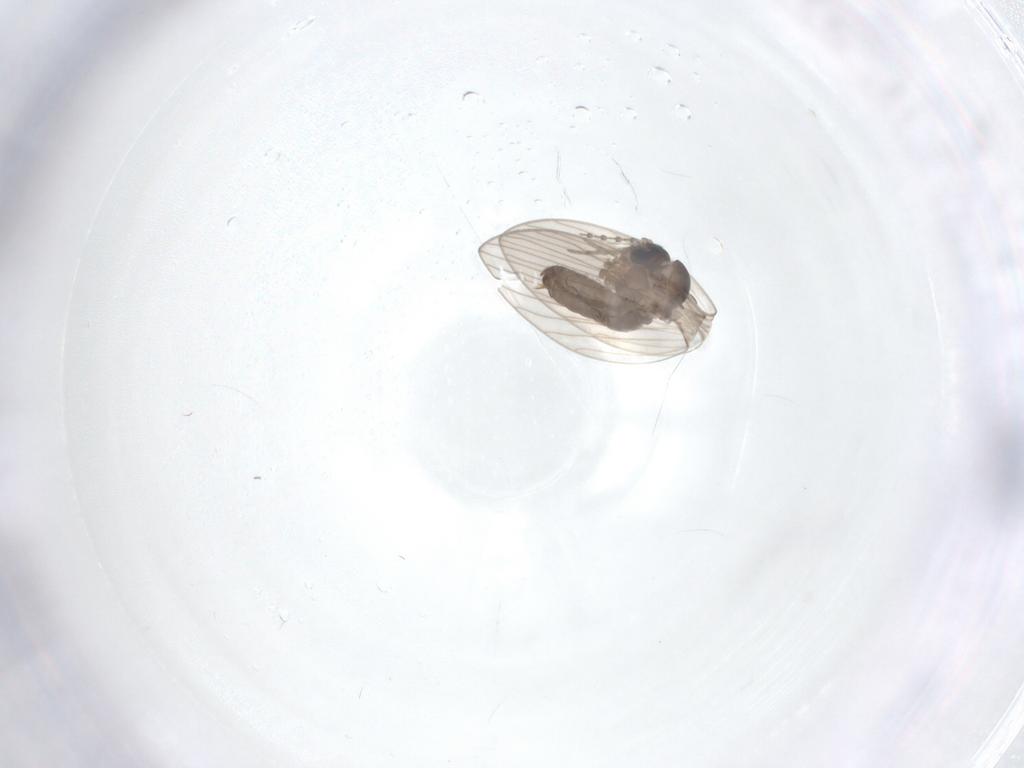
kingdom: Animalia
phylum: Arthropoda
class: Insecta
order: Diptera
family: Psychodidae
